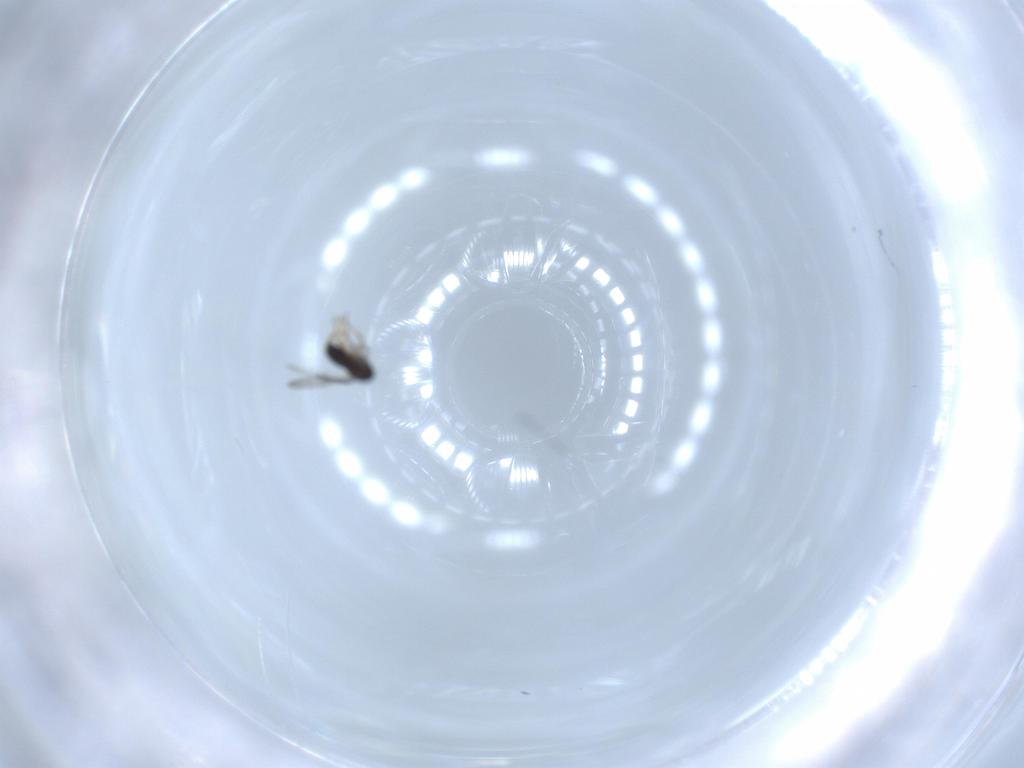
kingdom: Animalia
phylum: Arthropoda
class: Insecta
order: Hymenoptera
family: Scelionidae
